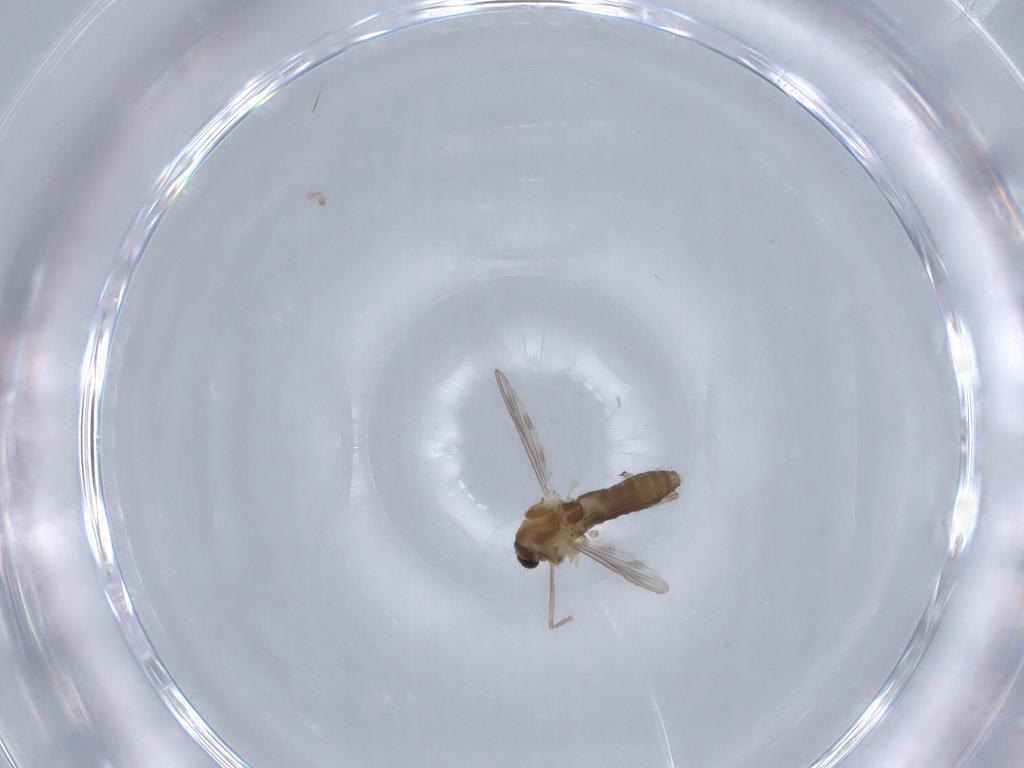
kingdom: Animalia
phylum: Arthropoda
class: Insecta
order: Diptera
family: Chironomidae
